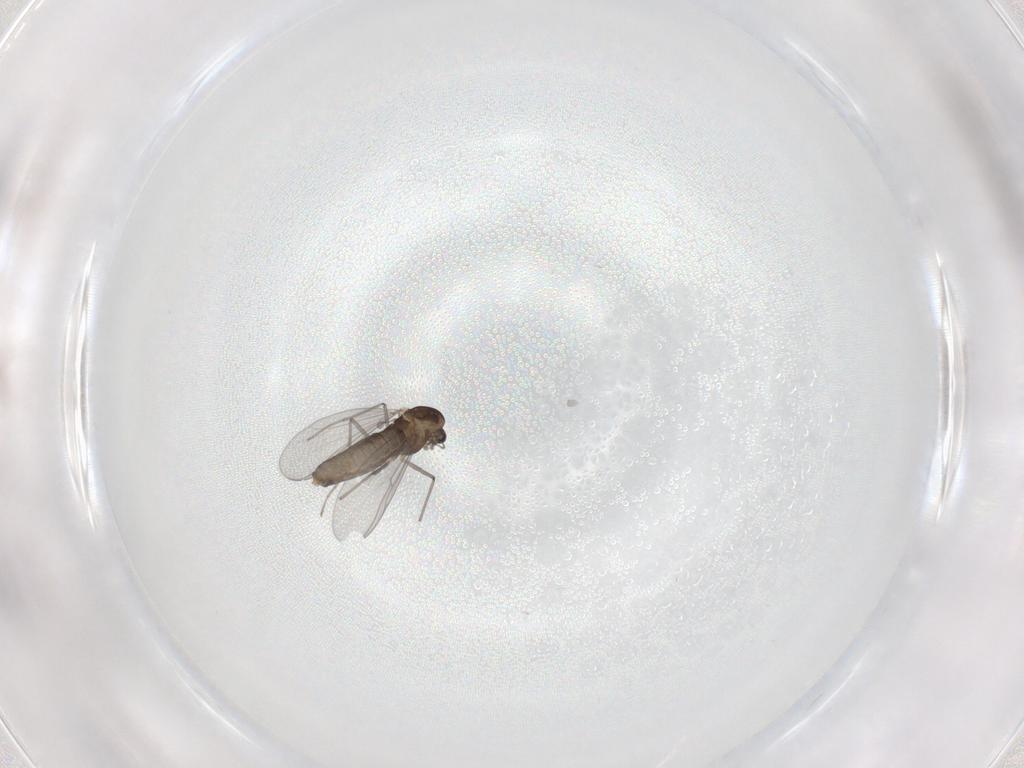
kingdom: Animalia
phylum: Arthropoda
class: Insecta
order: Diptera
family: Chironomidae
